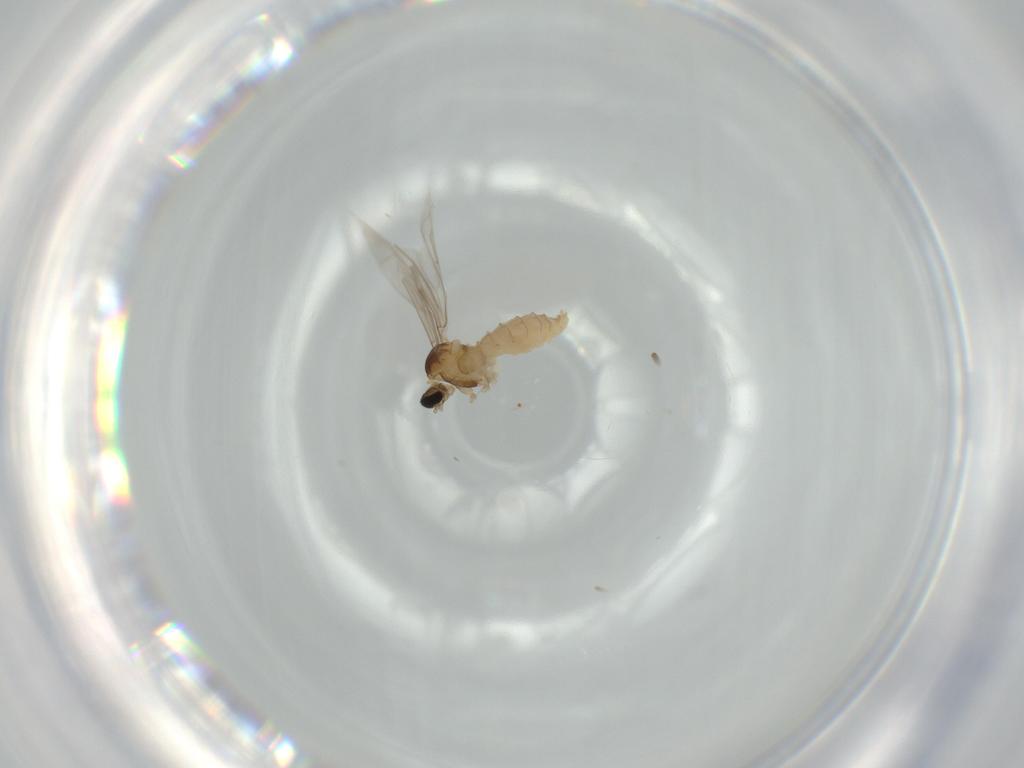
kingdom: Animalia
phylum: Arthropoda
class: Insecta
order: Diptera
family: Cecidomyiidae
